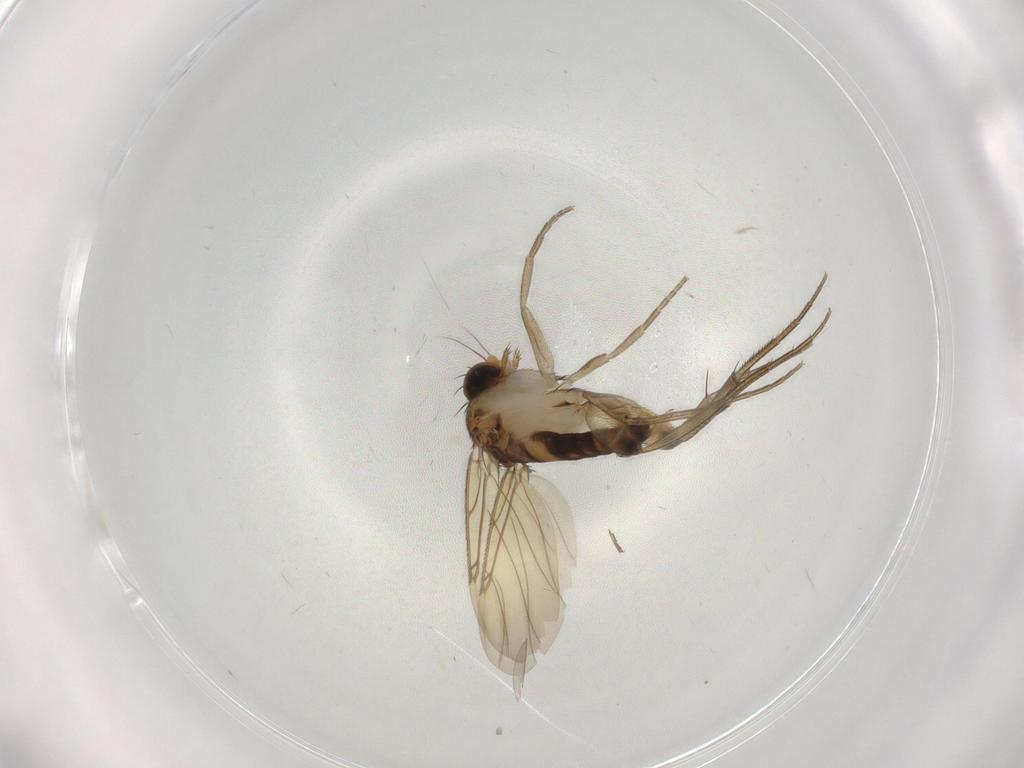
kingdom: Animalia
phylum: Arthropoda
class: Insecta
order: Diptera
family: Phoridae
